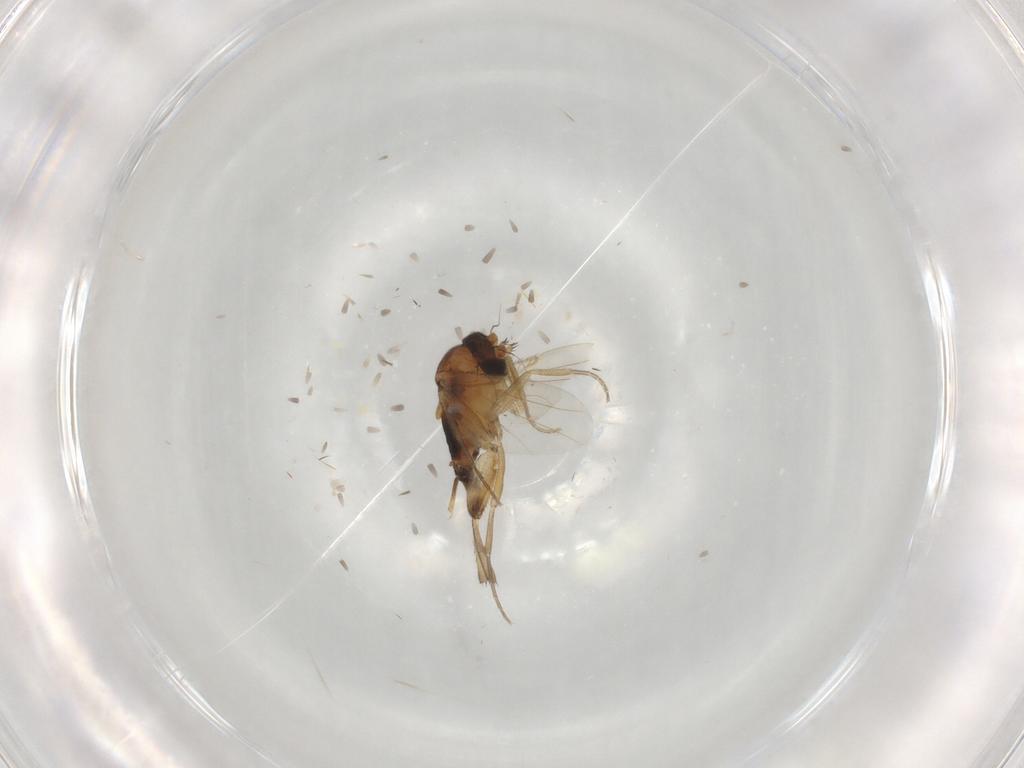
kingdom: Animalia
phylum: Arthropoda
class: Insecta
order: Diptera
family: Phoridae
